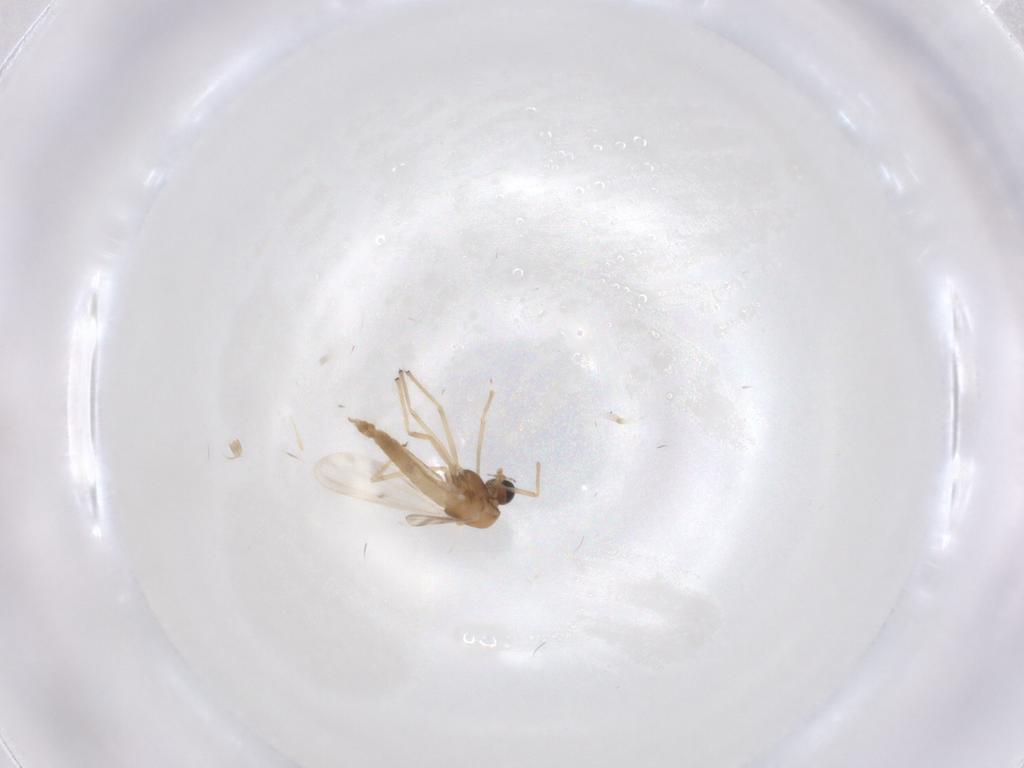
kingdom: Animalia
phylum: Arthropoda
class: Insecta
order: Diptera
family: Chironomidae
